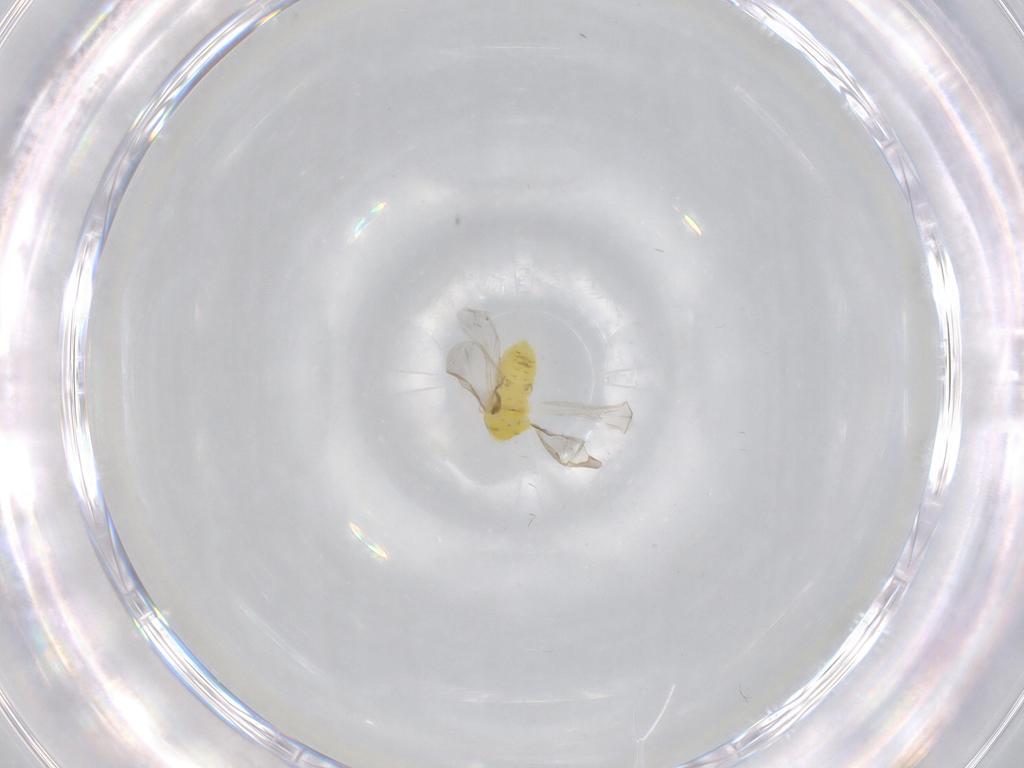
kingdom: Animalia
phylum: Arthropoda
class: Insecta
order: Hemiptera
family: Aleyrodidae
